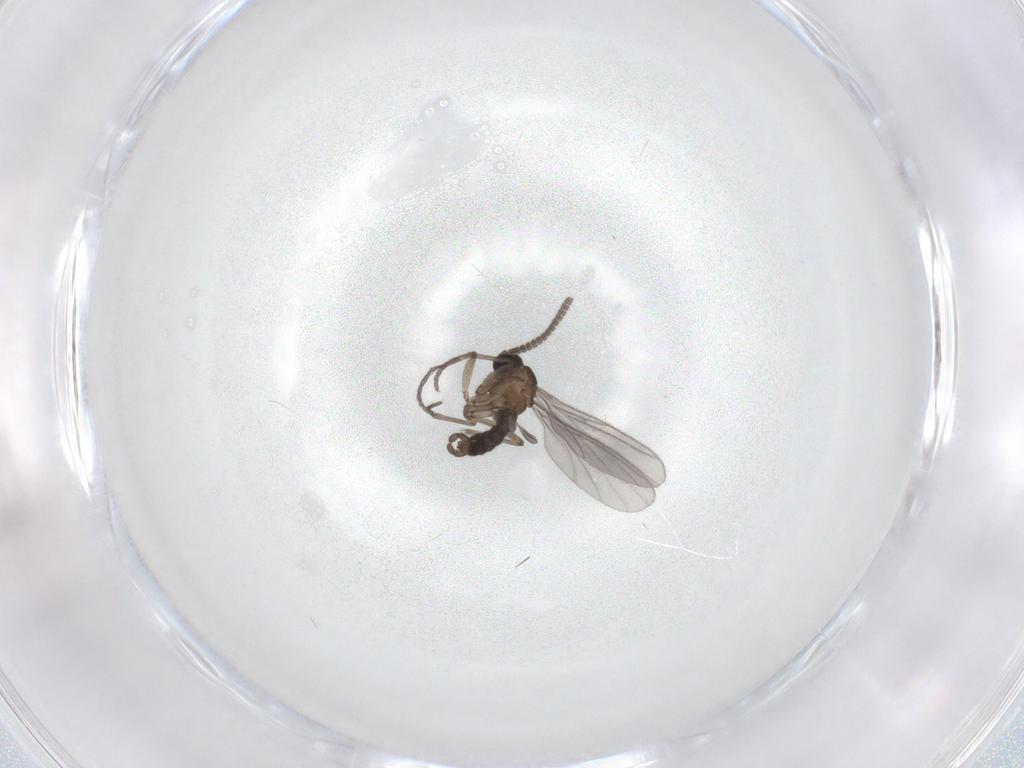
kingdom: Animalia
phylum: Arthropoda
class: Insecta
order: Diptera
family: Sciaridae
